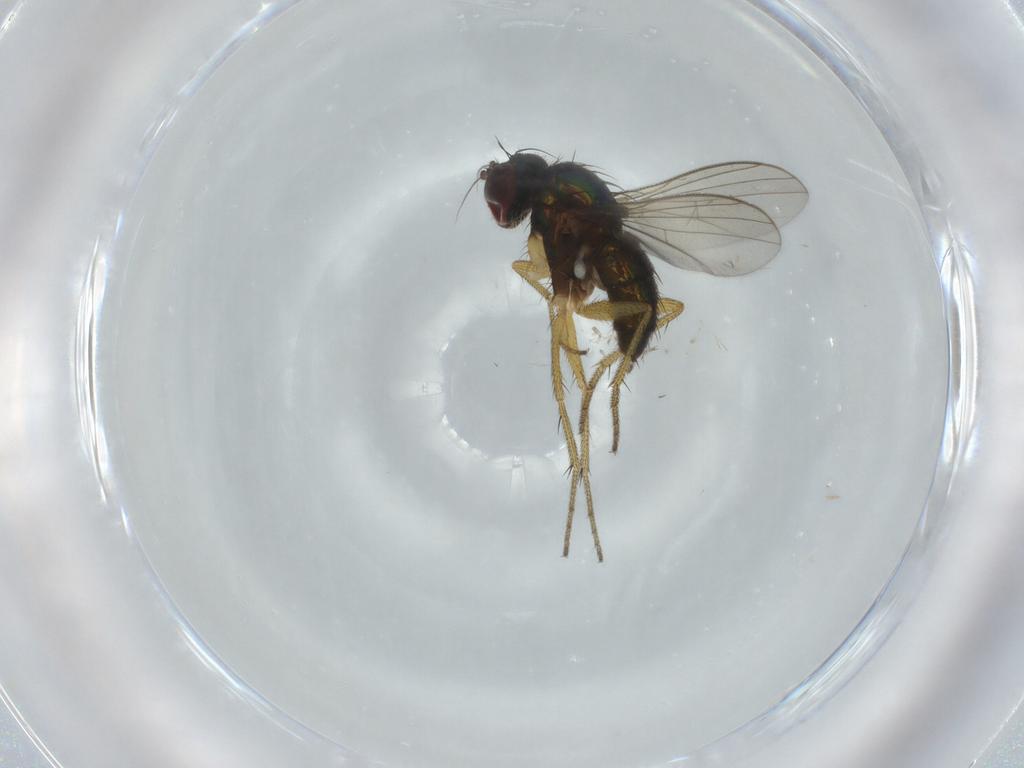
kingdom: Animalia
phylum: Arthropoda
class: Insecta
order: Diptera
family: Dolichopodidae
